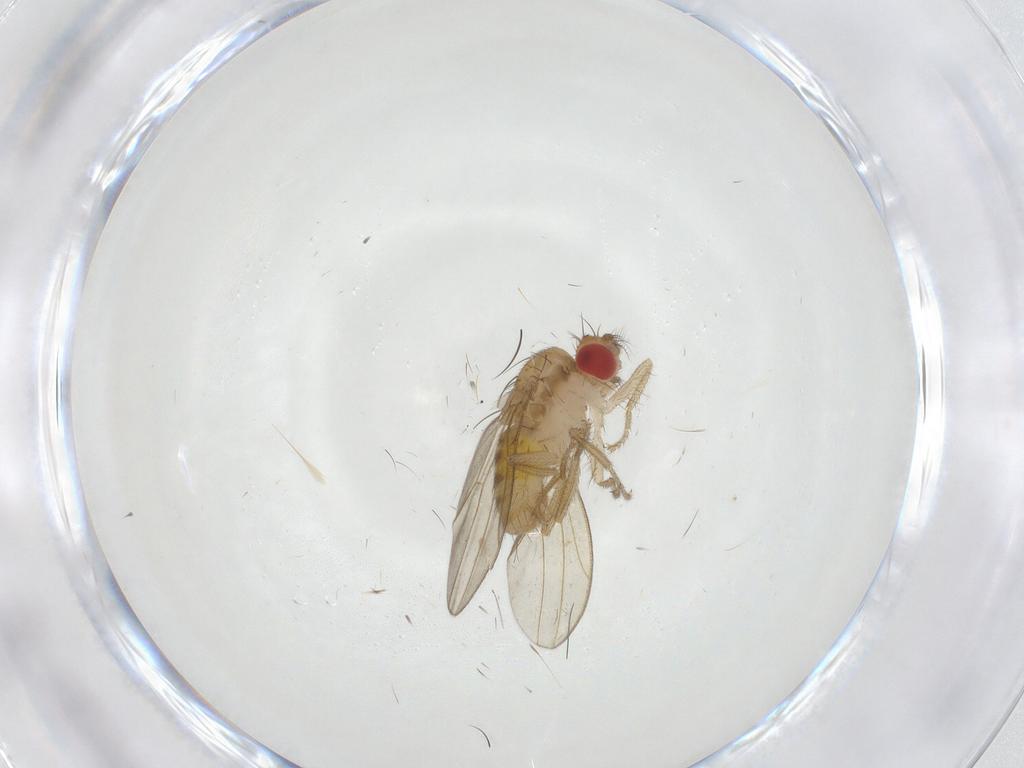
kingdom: Animalia
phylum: Arthropoda
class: Insecta
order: Diptera
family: Drosophilidae
